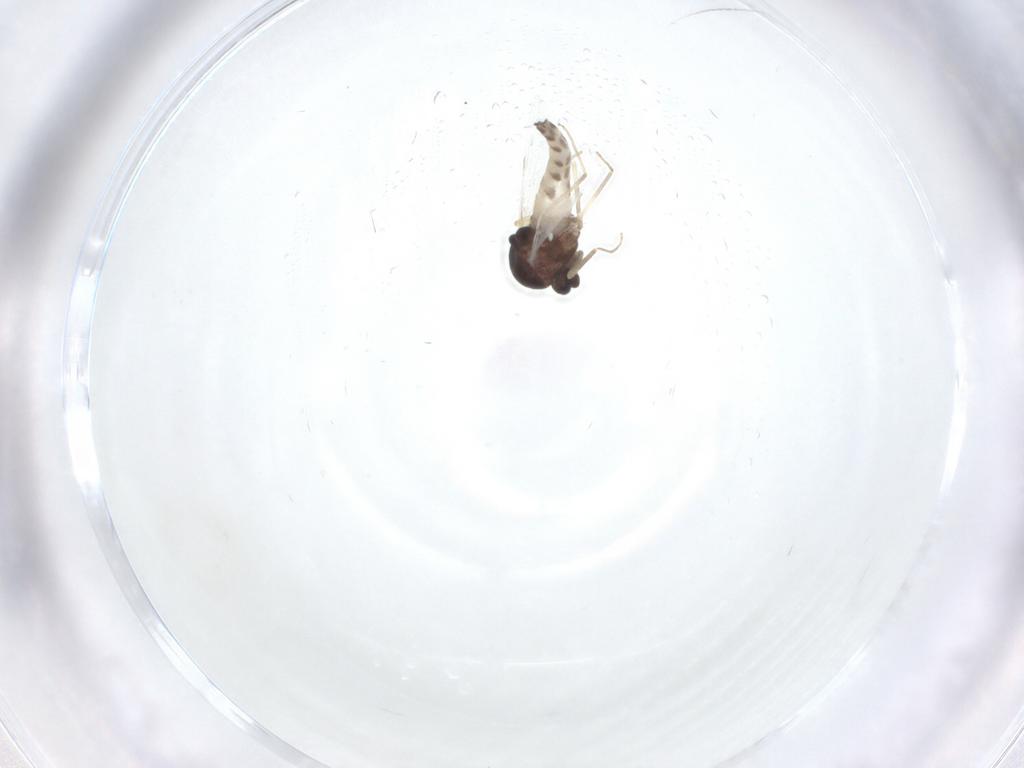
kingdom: Animalia
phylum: Arthropoda
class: Insecta
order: Diptera
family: Ceratopogonidae
